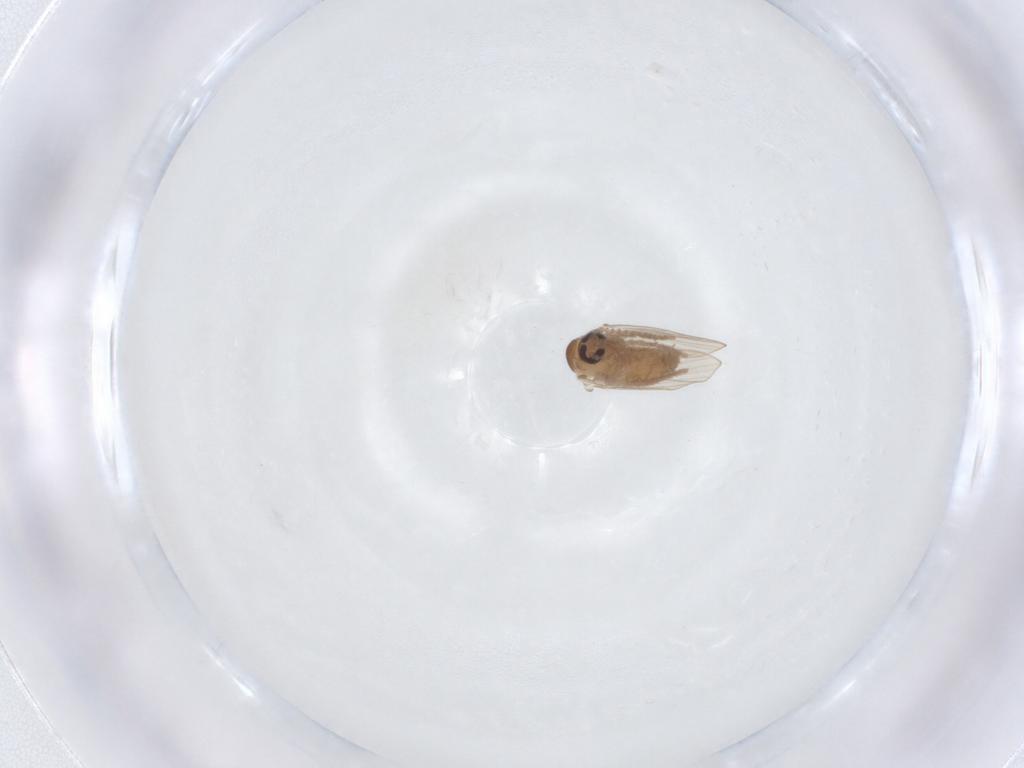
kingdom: Animalia
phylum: Arthropoda
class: Insecta
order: Diptera
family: Psychodidae
